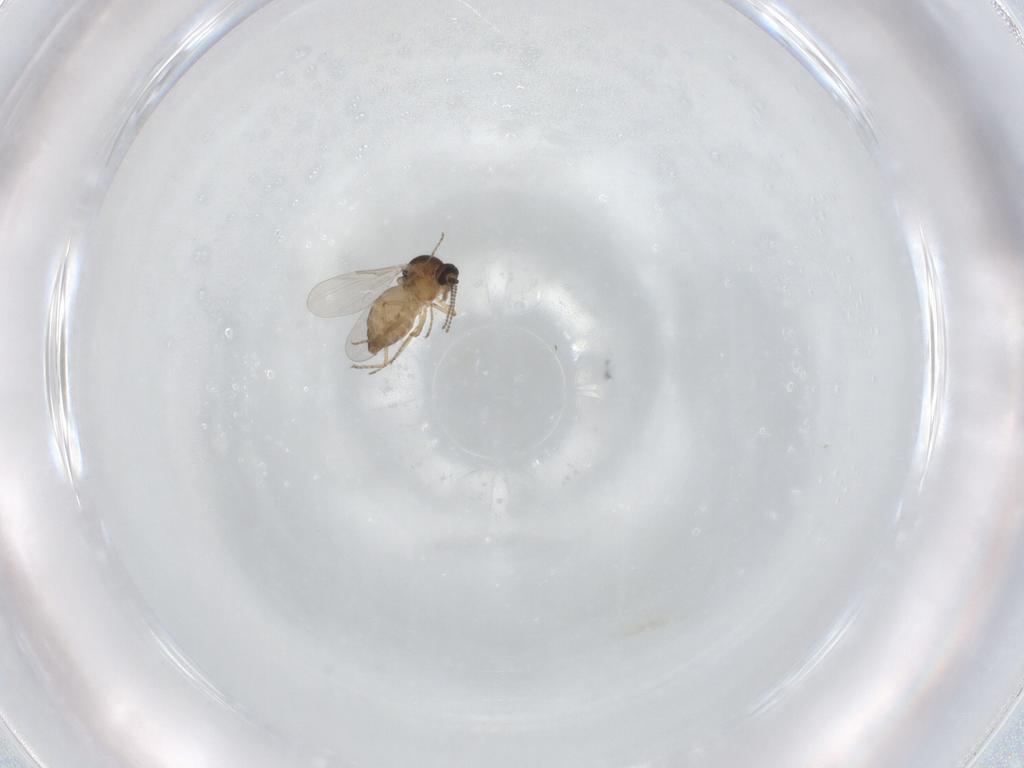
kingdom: Animalia
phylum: Arthropoda
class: Insecta
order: Diptera
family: Ceratopogonidae
